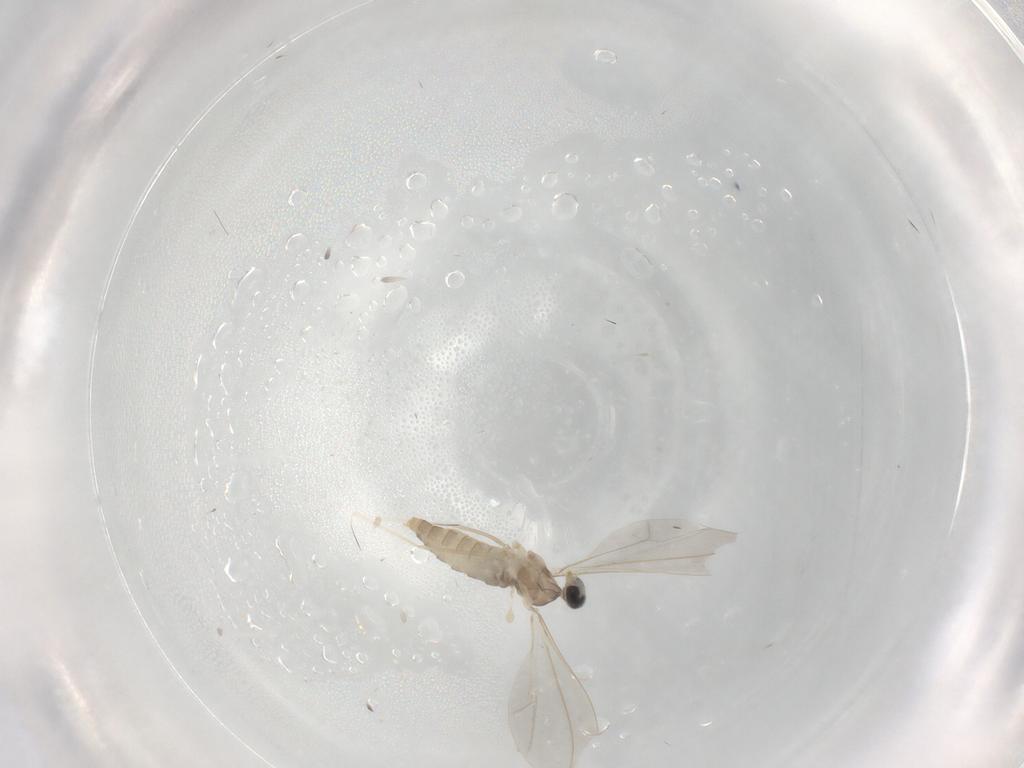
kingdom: Animalia
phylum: Arthropoda
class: Insecta
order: Diptera
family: Cecidomyiidae
